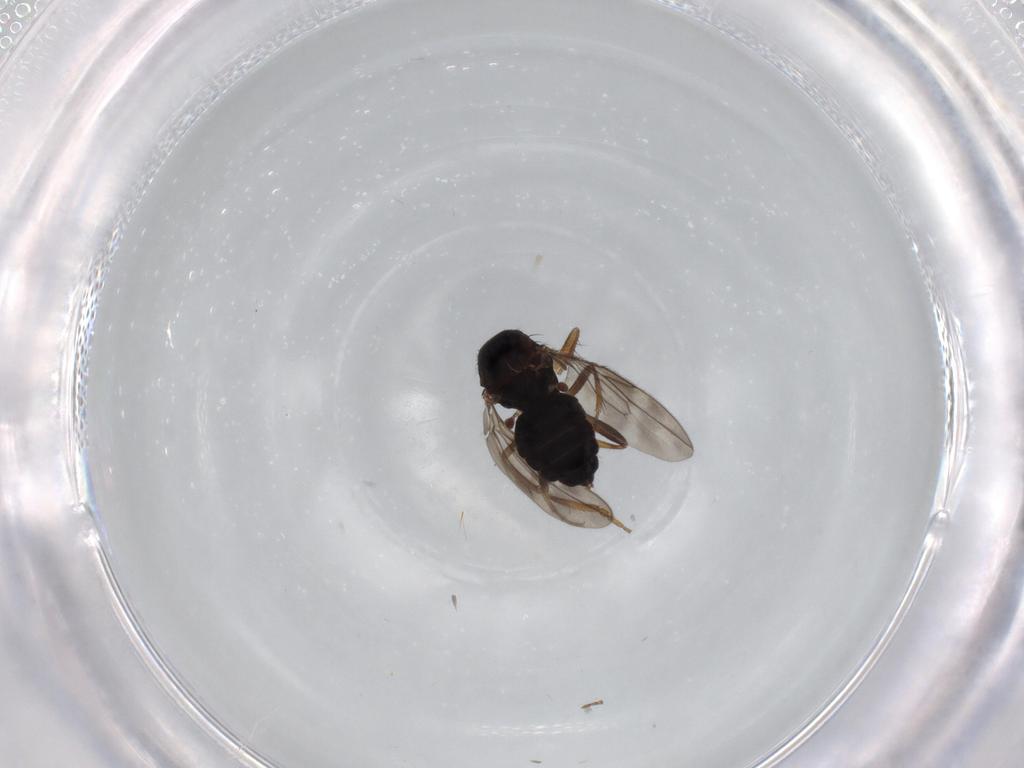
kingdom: Animalia
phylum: Arthropoda
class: Insecta
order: Diptera
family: Sphaeroceridae
